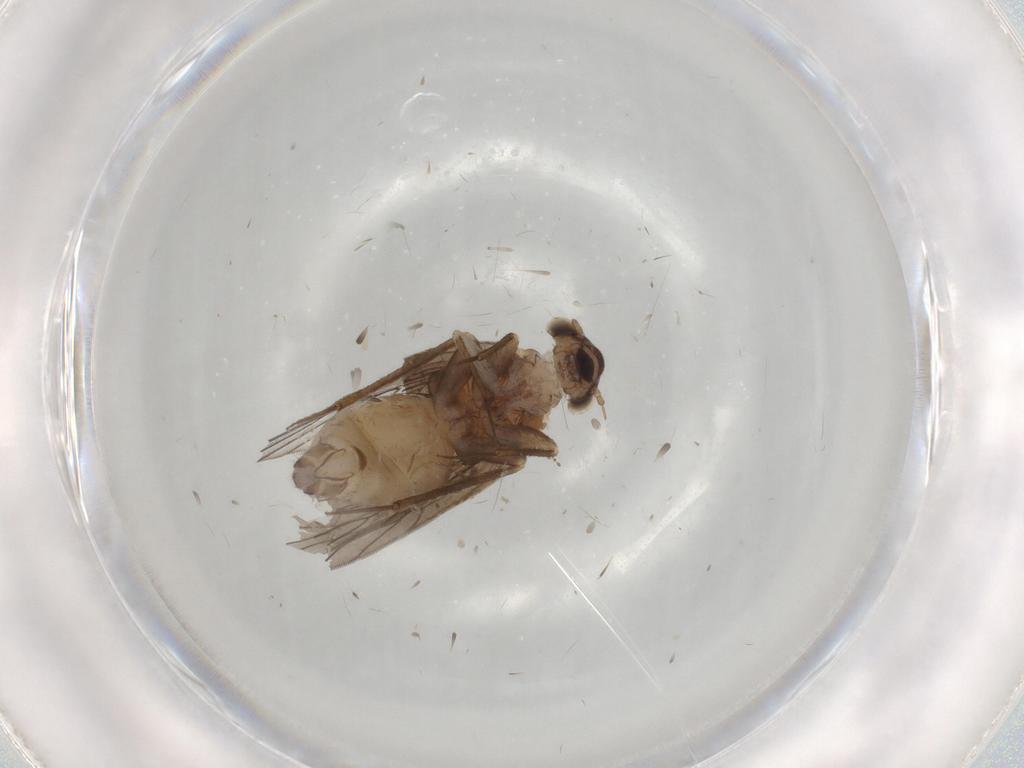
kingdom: Animalia
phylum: Arthropoda
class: Insecta
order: Psocodea
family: Lepidopsocidae
